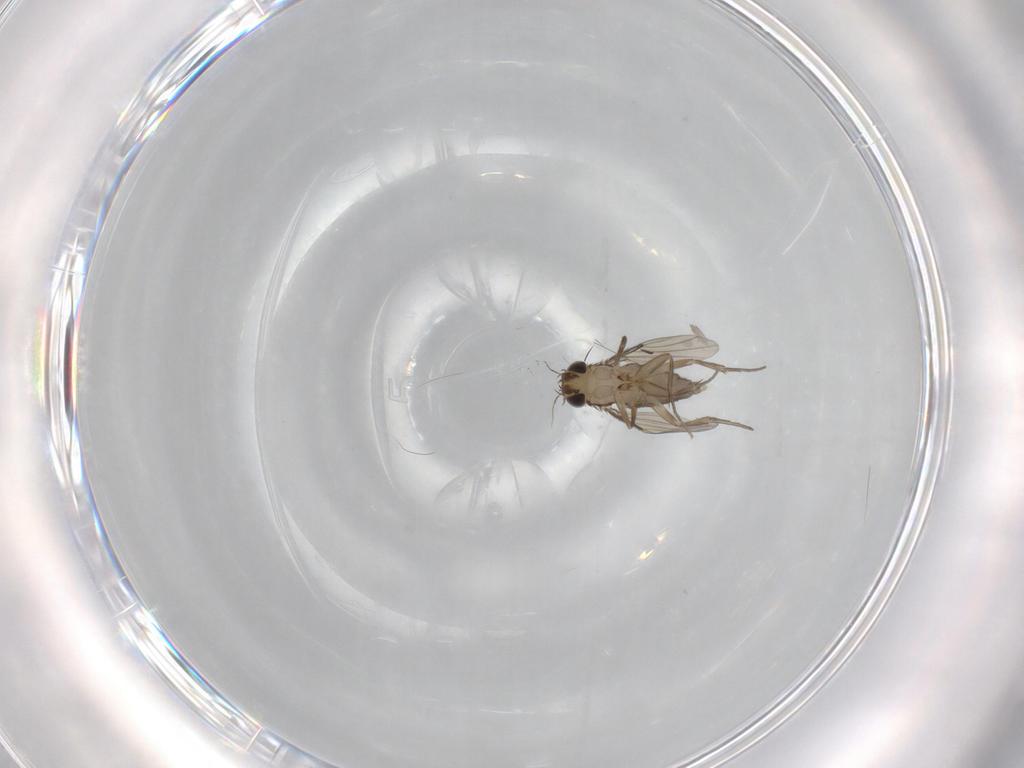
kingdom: Animalia
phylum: Arthropoda
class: Insecta
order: Diptera
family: Phoridae
